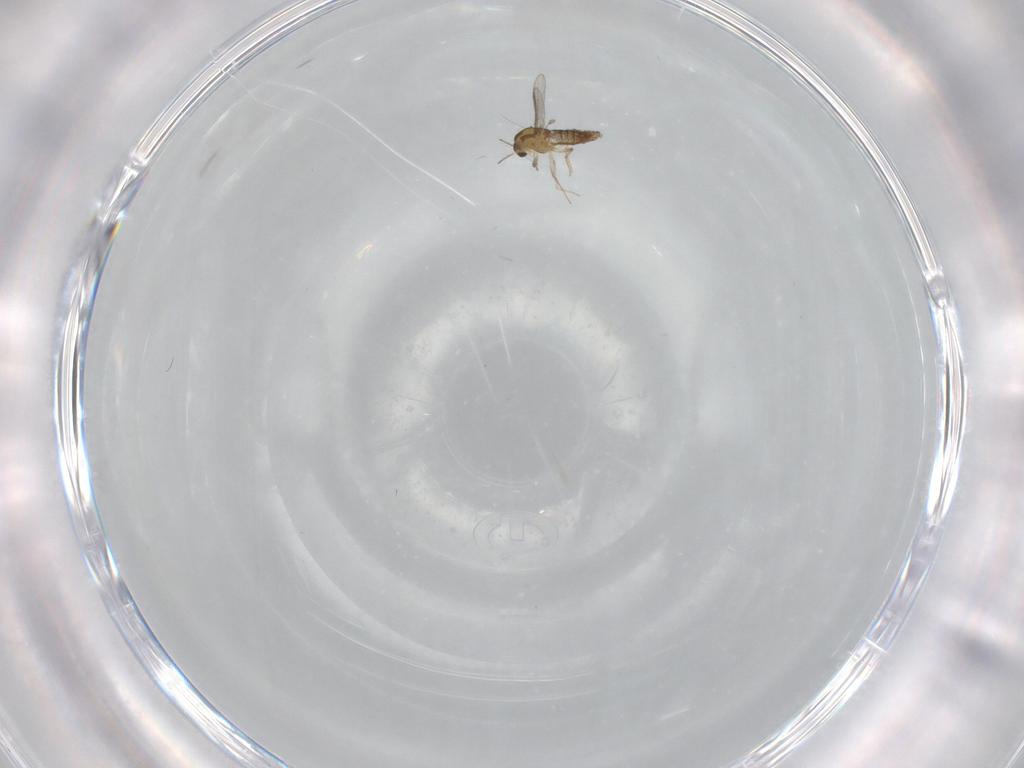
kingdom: Animalia
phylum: Arthropoda
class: Insecta
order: Diptera
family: Chironomidae
